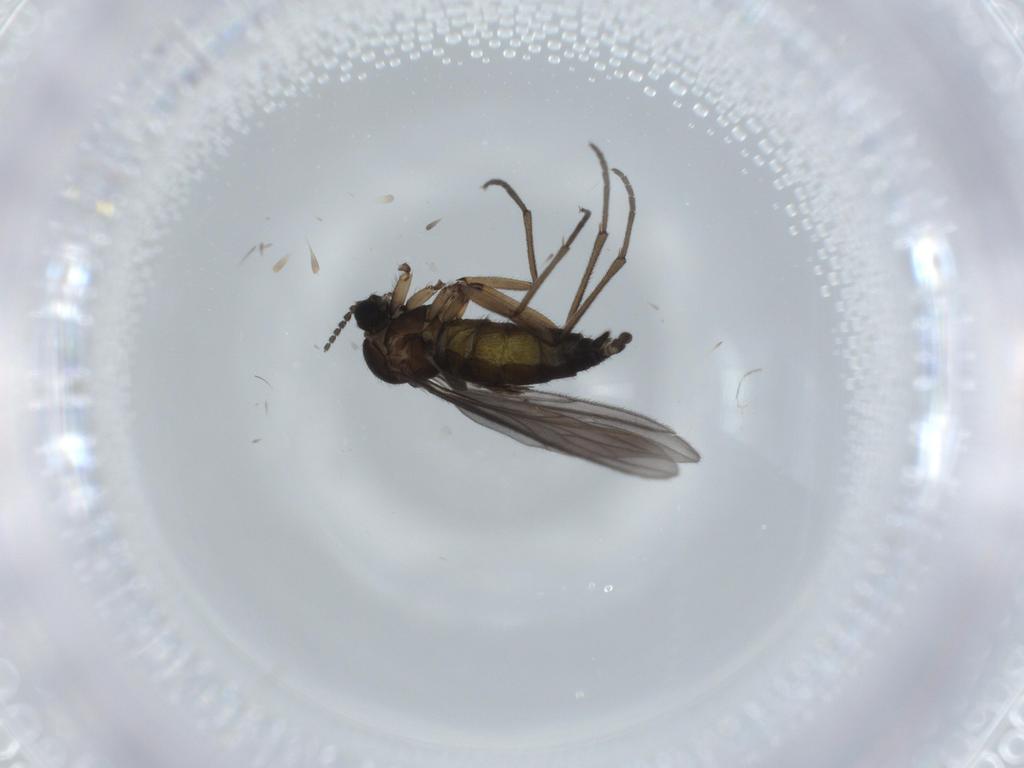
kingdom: Animalia
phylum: Arthropoda
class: Insecta
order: Diptera
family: Sciaridae
